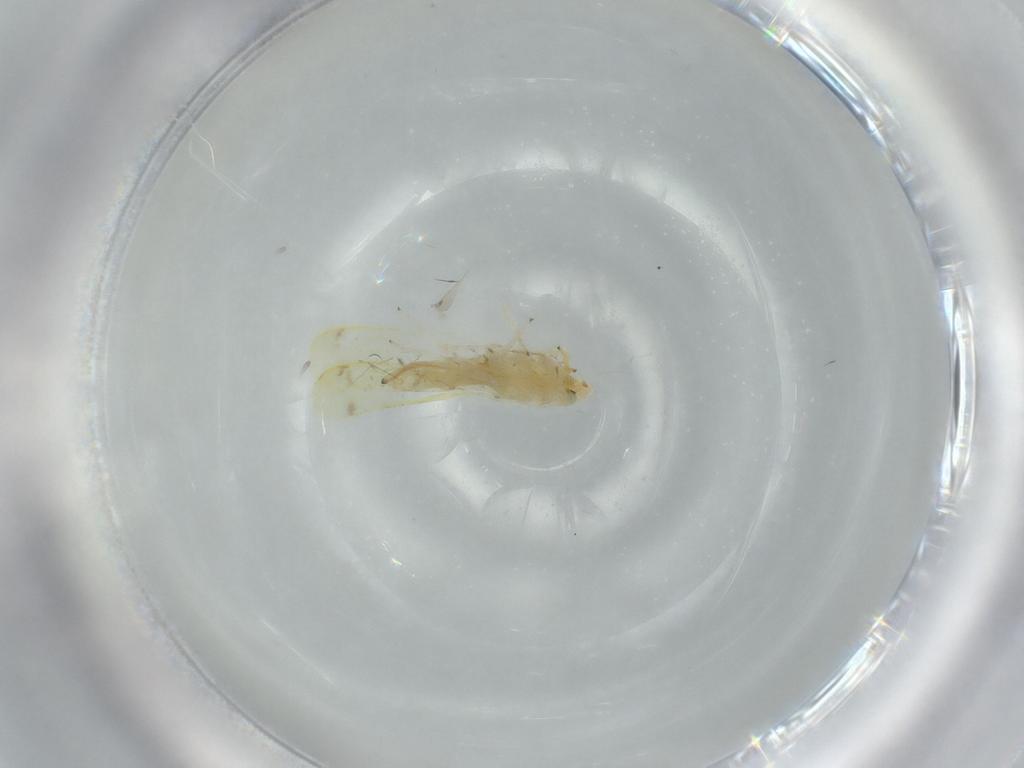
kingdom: Animalia
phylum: Arthropoda
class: Insecta
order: Hemiptera
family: Cicadellidae
